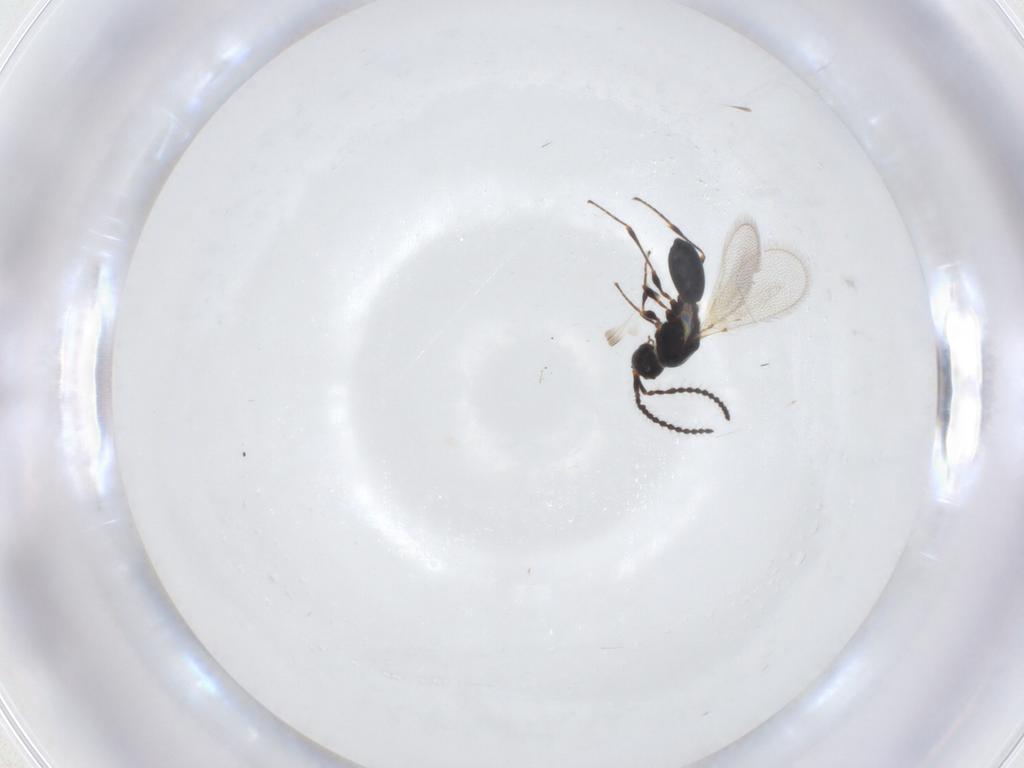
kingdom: Animalia
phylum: Arthropoda
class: Insecta
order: Hymenoptera
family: Diapriidae
